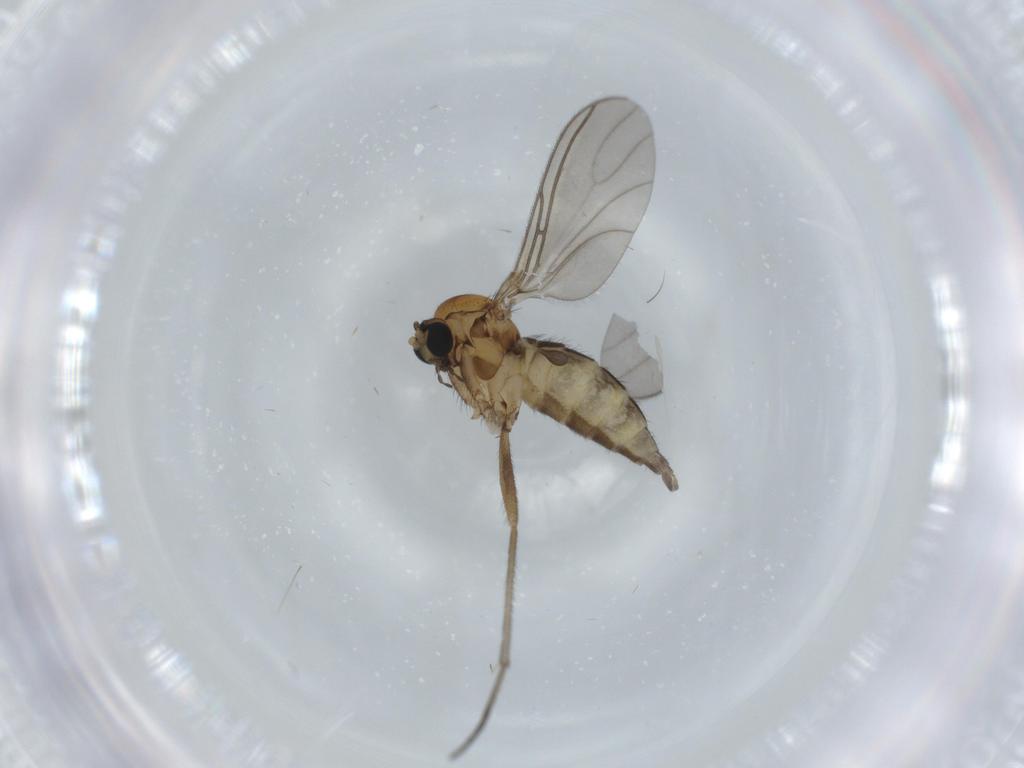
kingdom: Animalia
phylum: Arthropoda
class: Insecta
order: Diptera
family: Sciaridae
